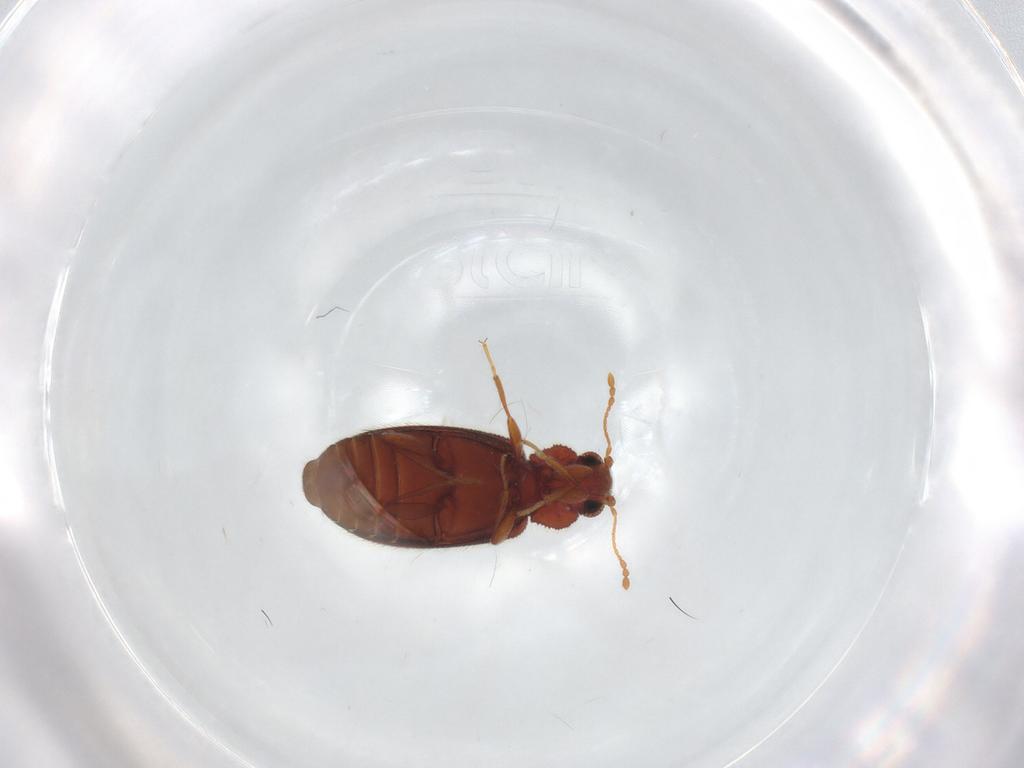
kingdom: Animalia
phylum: Arthropoda
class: Insecta
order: Coleoptera
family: Latridiidae
